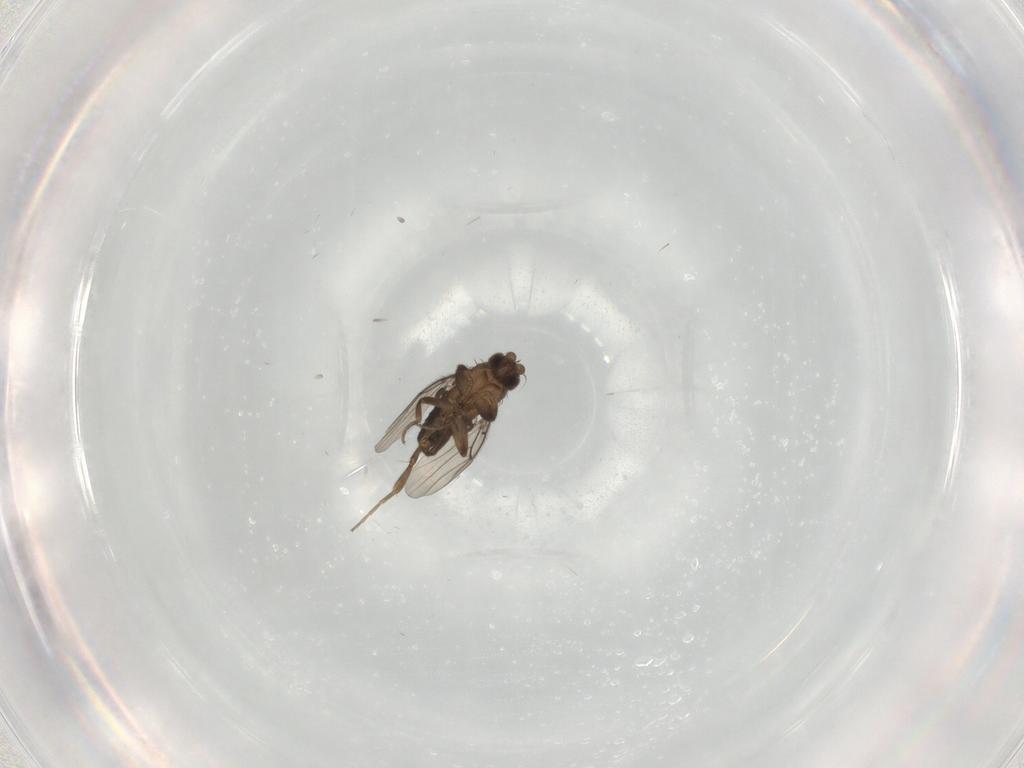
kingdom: Animalia
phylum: Arthropoda
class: Insecta
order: Diptera
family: Phoridae
